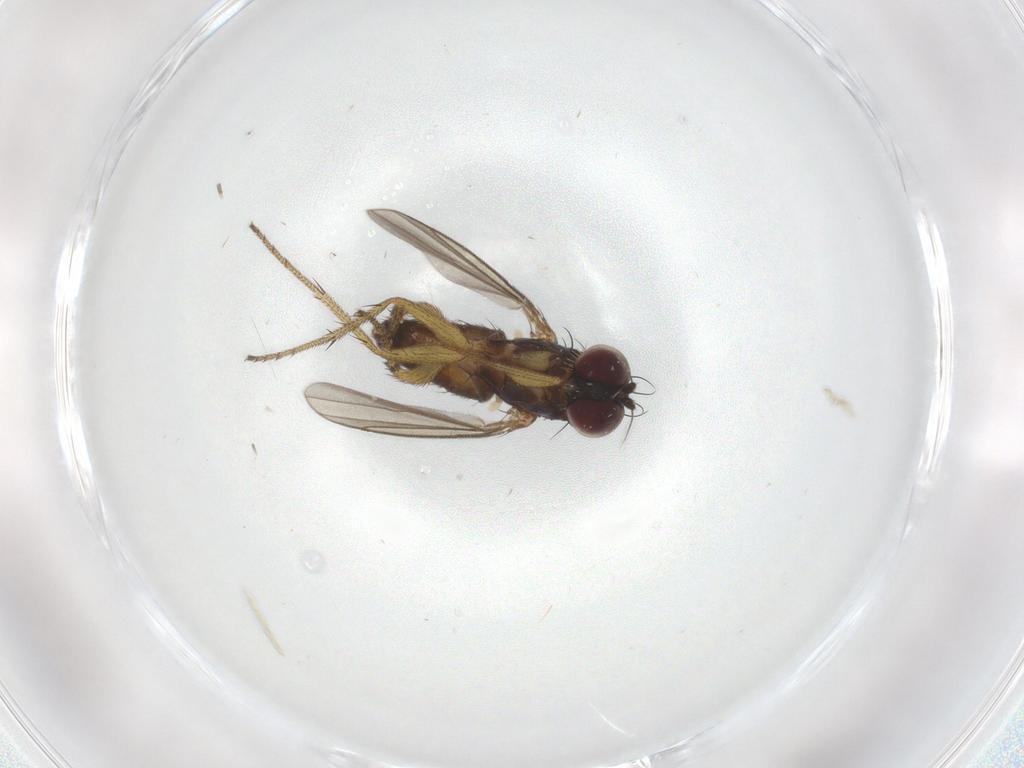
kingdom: Animalia
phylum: Arthropoda
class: Insecta
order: Diptera
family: Dolichopodidae
